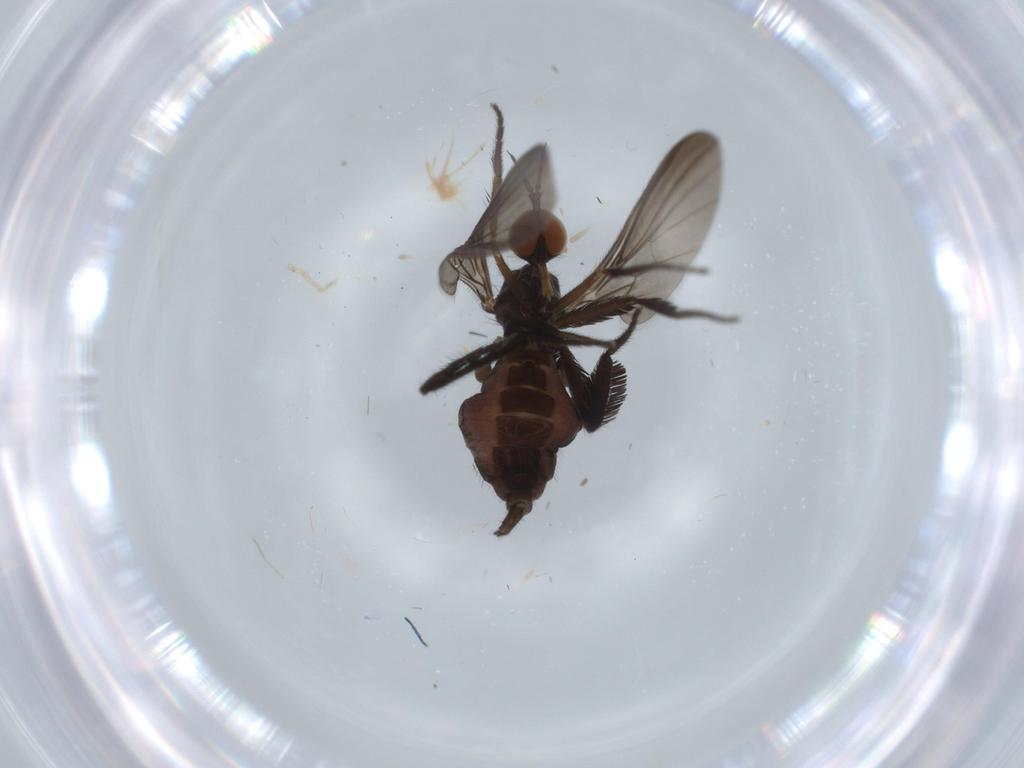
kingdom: Animalia
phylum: Arthropoda
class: Insecta
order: Diptera
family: Empididae
